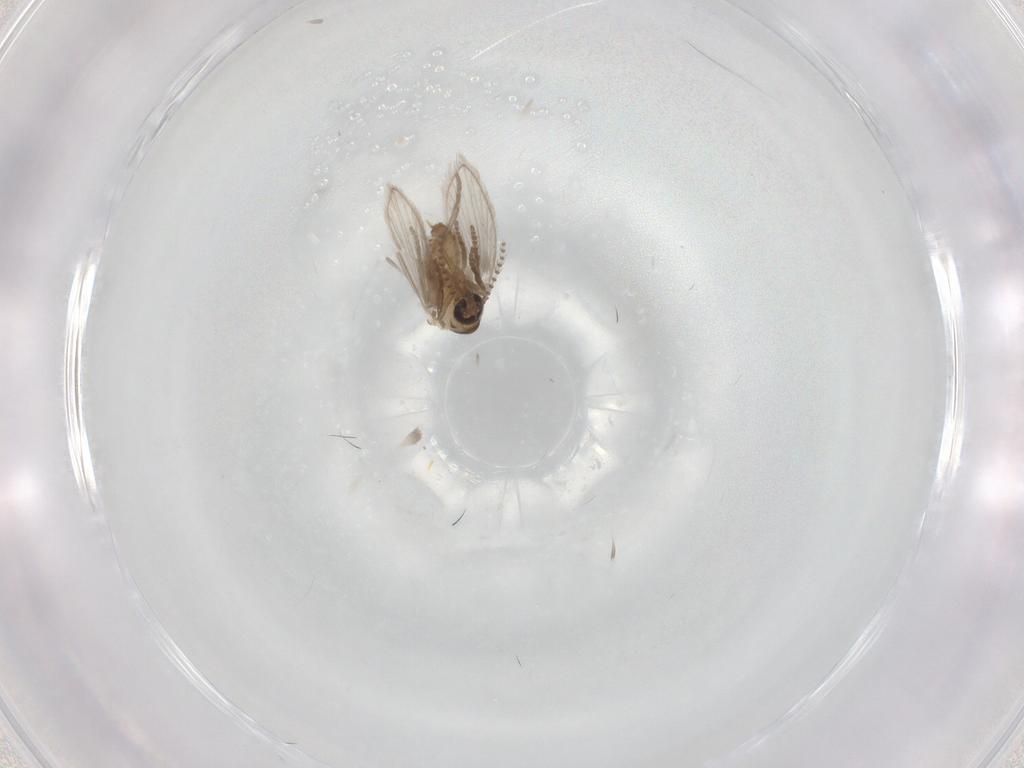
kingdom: Animalia
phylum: Arthropoda
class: Insecta
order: Diptera
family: Psychodidae
